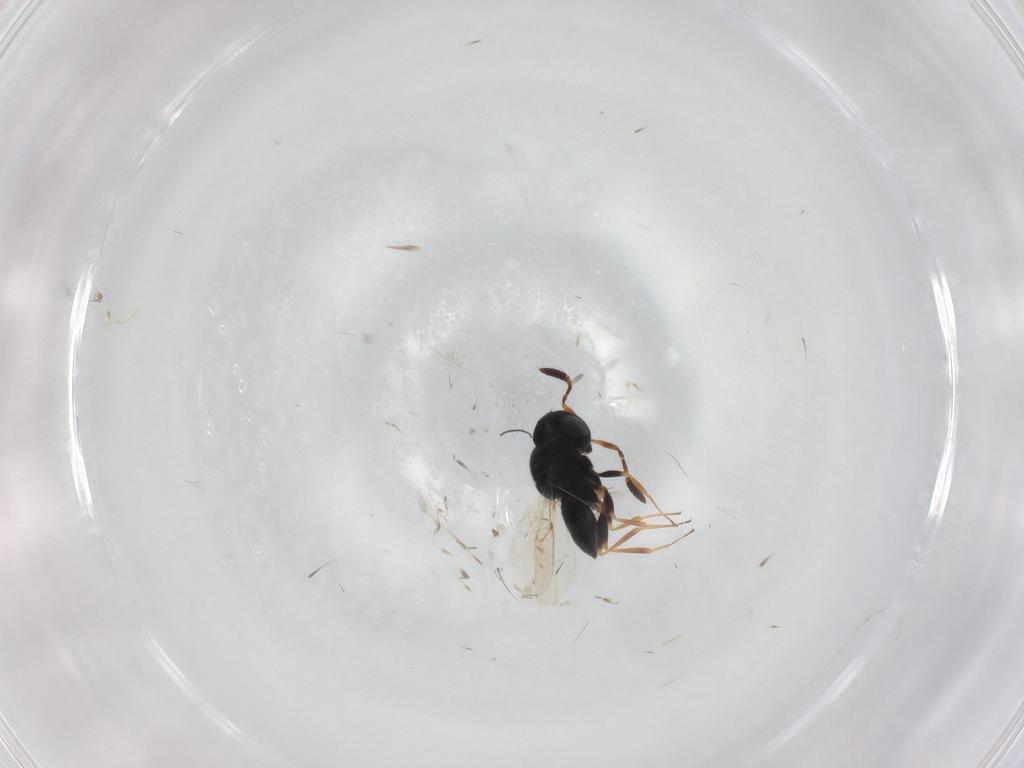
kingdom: Animalia
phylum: Arthropoda
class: Insecta
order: Coleoptera
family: Curculionidae
